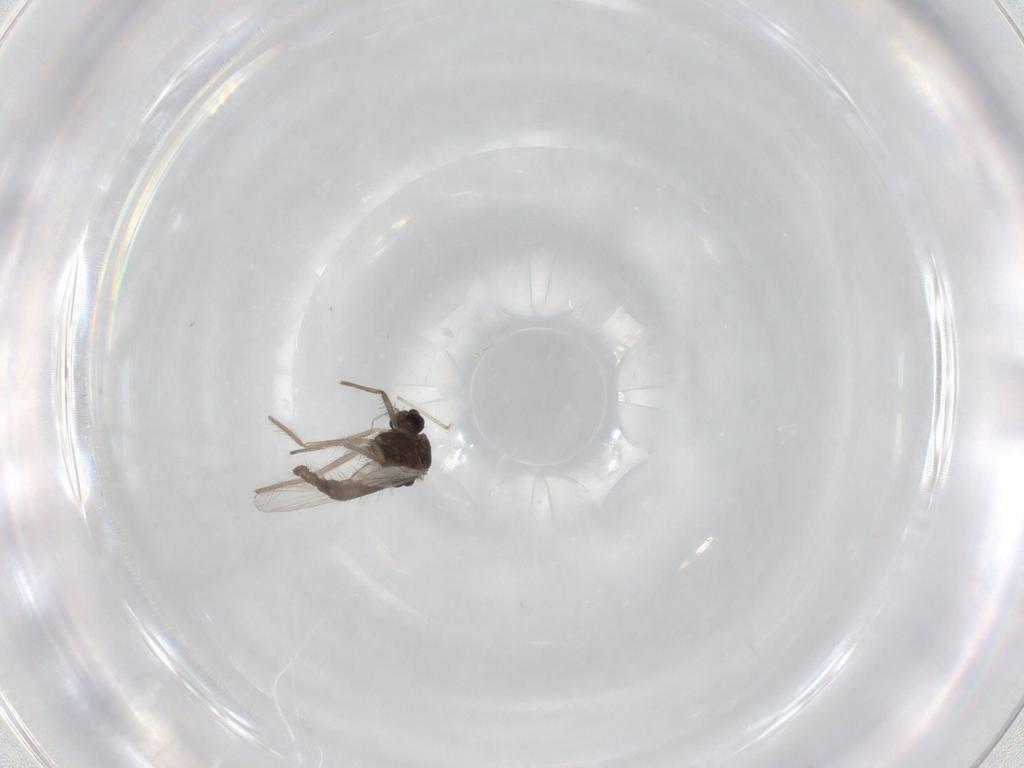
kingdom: Animalia
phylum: Arthropoda
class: Insecta
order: Diptera
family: Chironomidae
